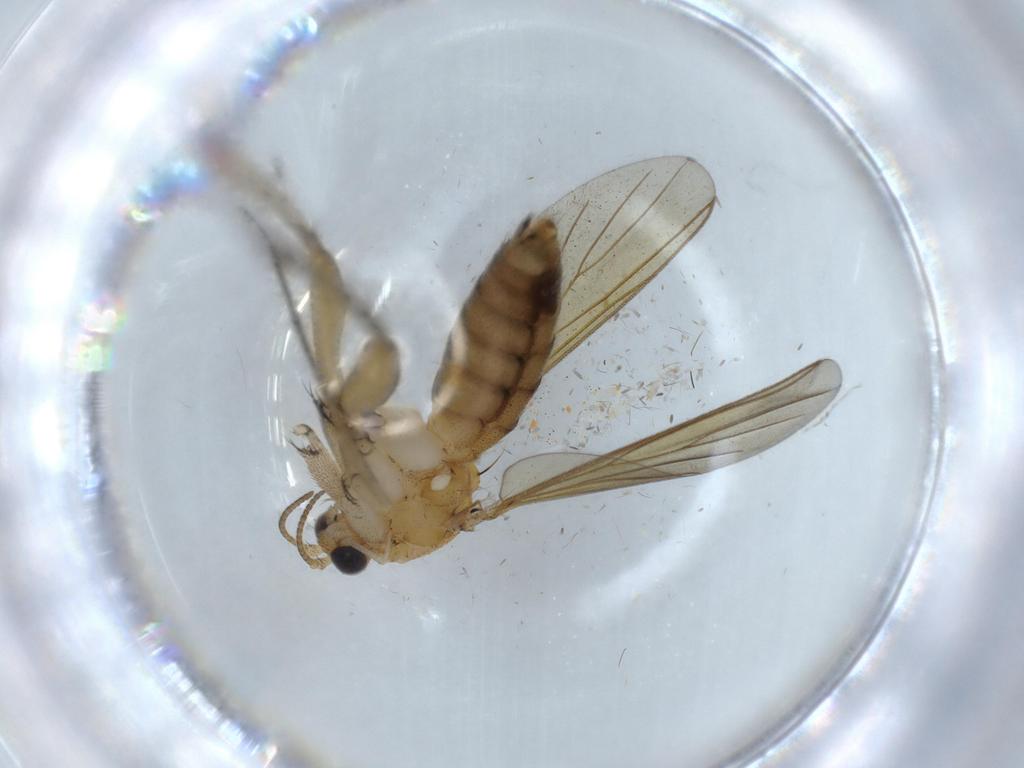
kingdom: Animalia
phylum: Arthropoda
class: Insecta
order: Diptera
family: Mycetophilidae
